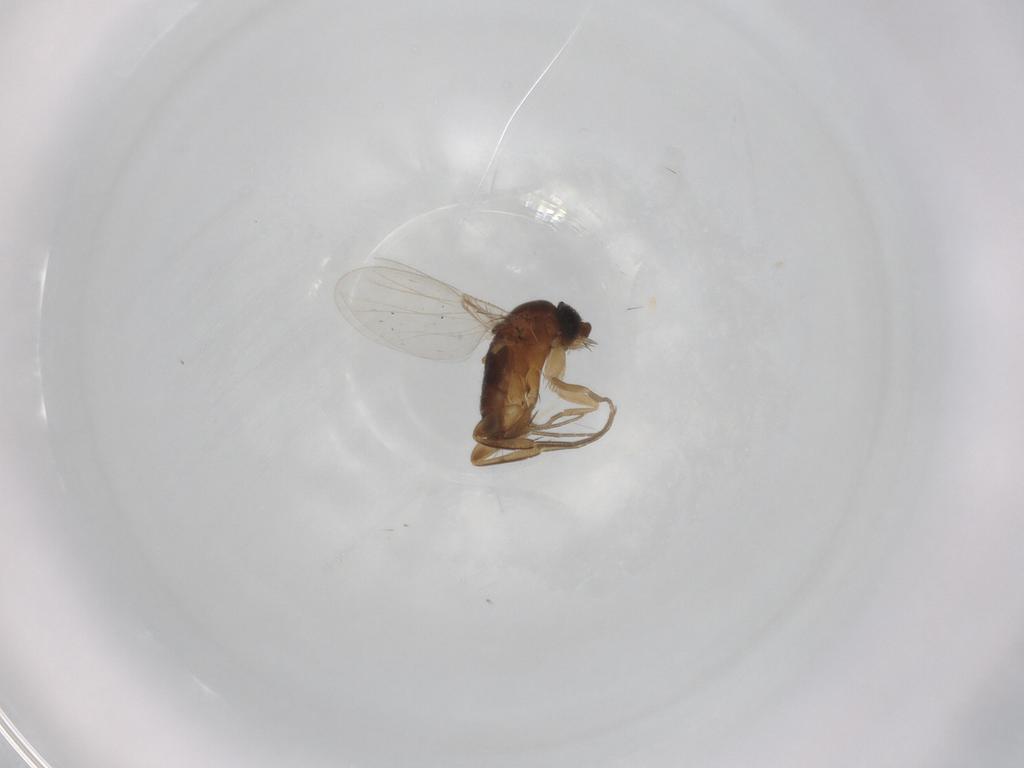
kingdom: Animalia
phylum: Arthropoda
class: Insecta
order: Diptera
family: Phoridae
